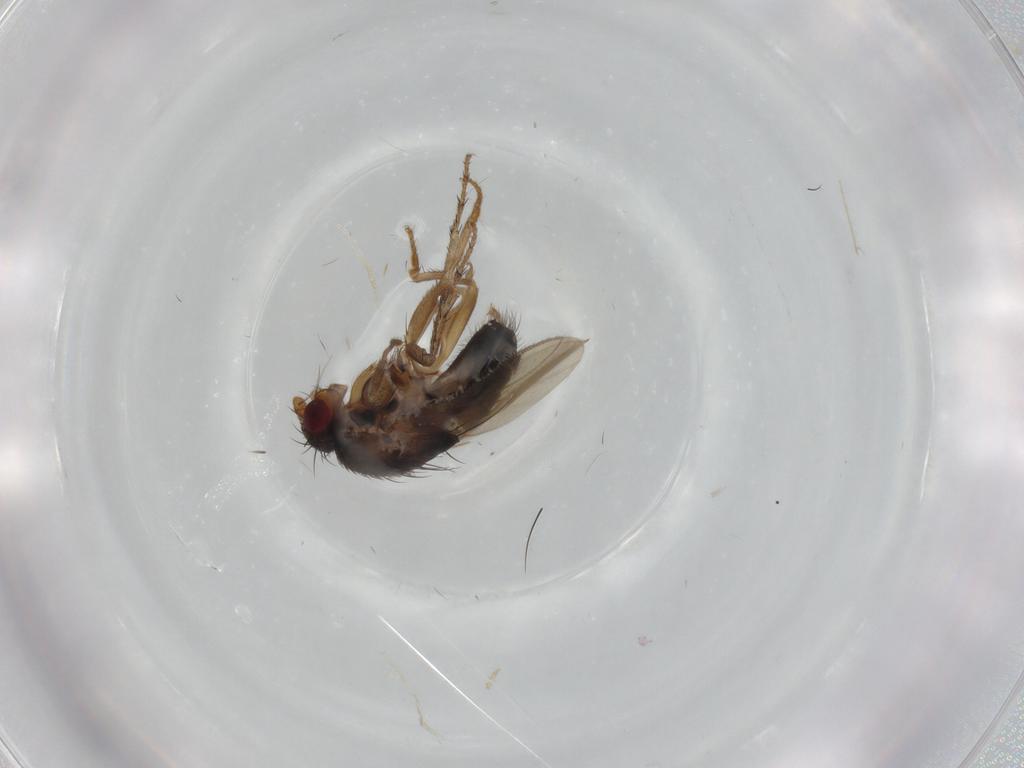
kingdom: Animalia
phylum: Arthropoda
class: Insecta
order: Diptera
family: Sphaeroceridae
